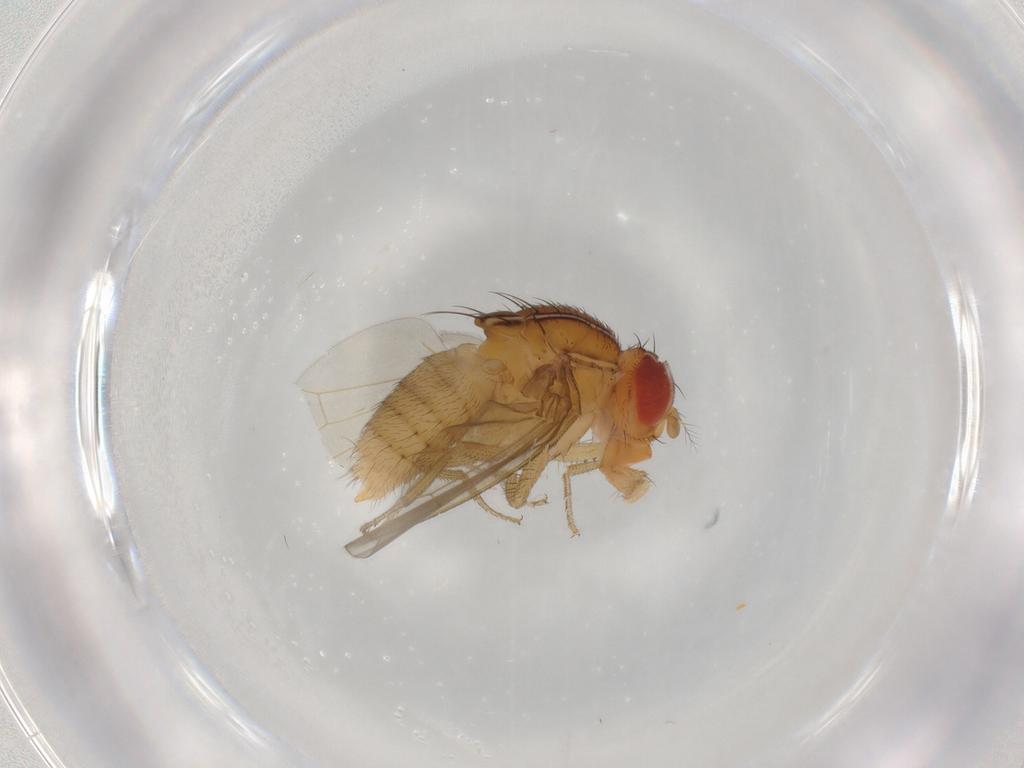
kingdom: Animalia
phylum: Arthropoda
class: Insecta
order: Diptera
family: Drosophilidae
